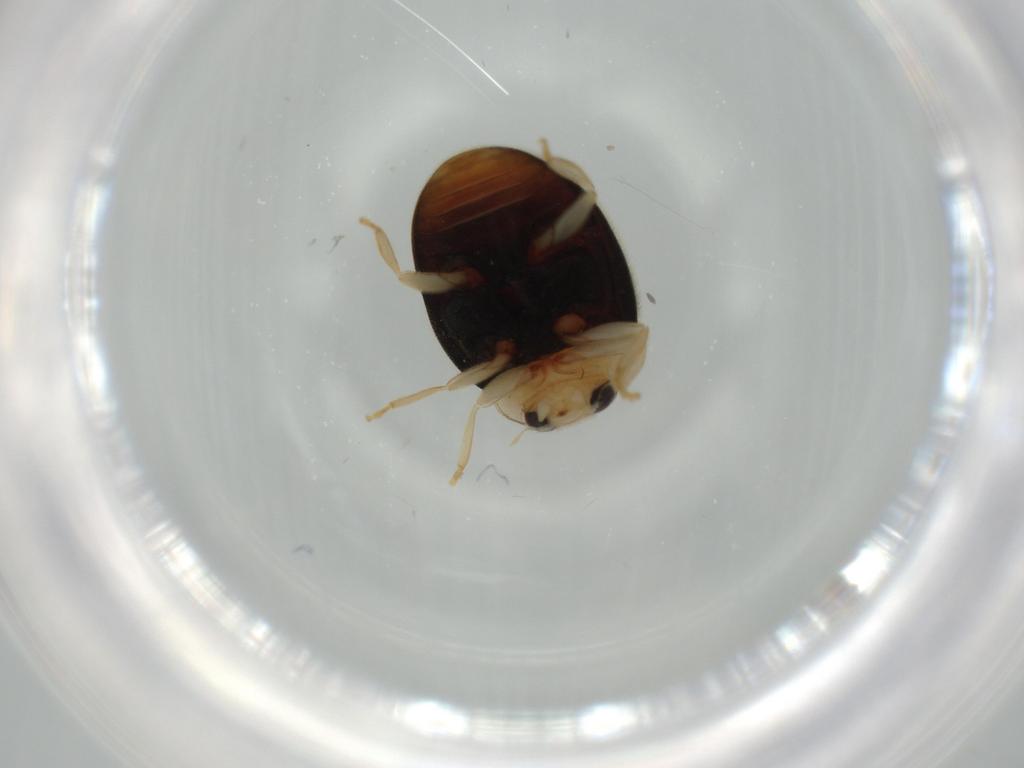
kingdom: Animalia
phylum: Arthropoda
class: Insecta
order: Coleoptera
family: Coccinellidae
